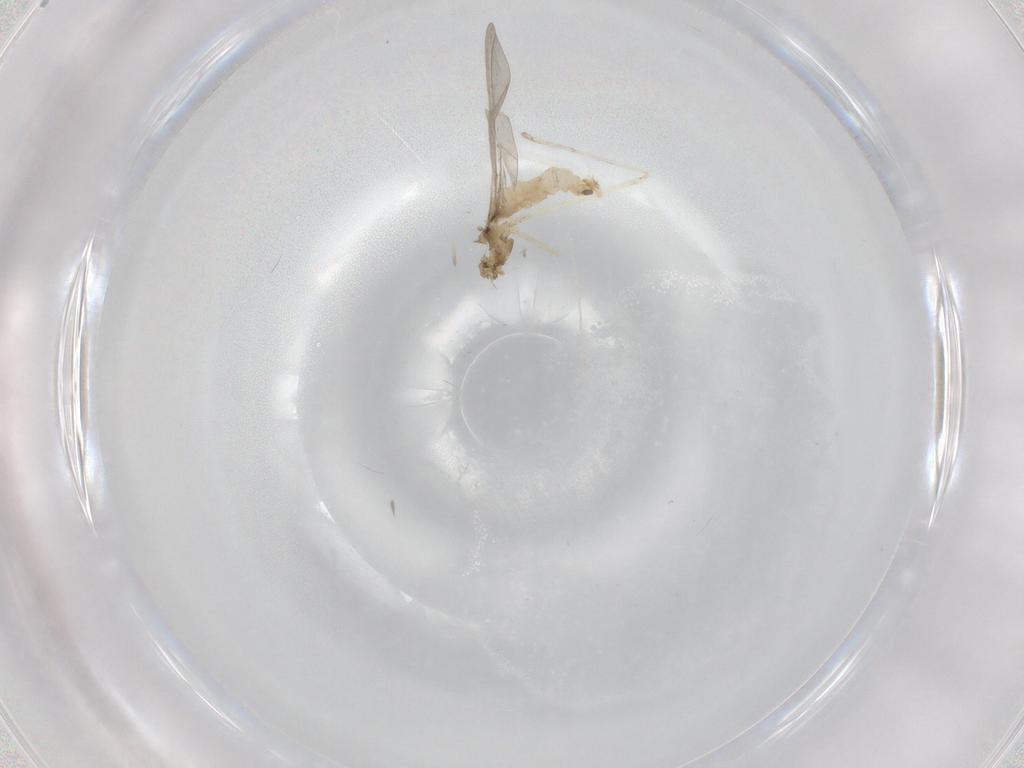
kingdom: Animalia
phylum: Arthropoda
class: Insecta
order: Diptera
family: Cecidomyiidae
